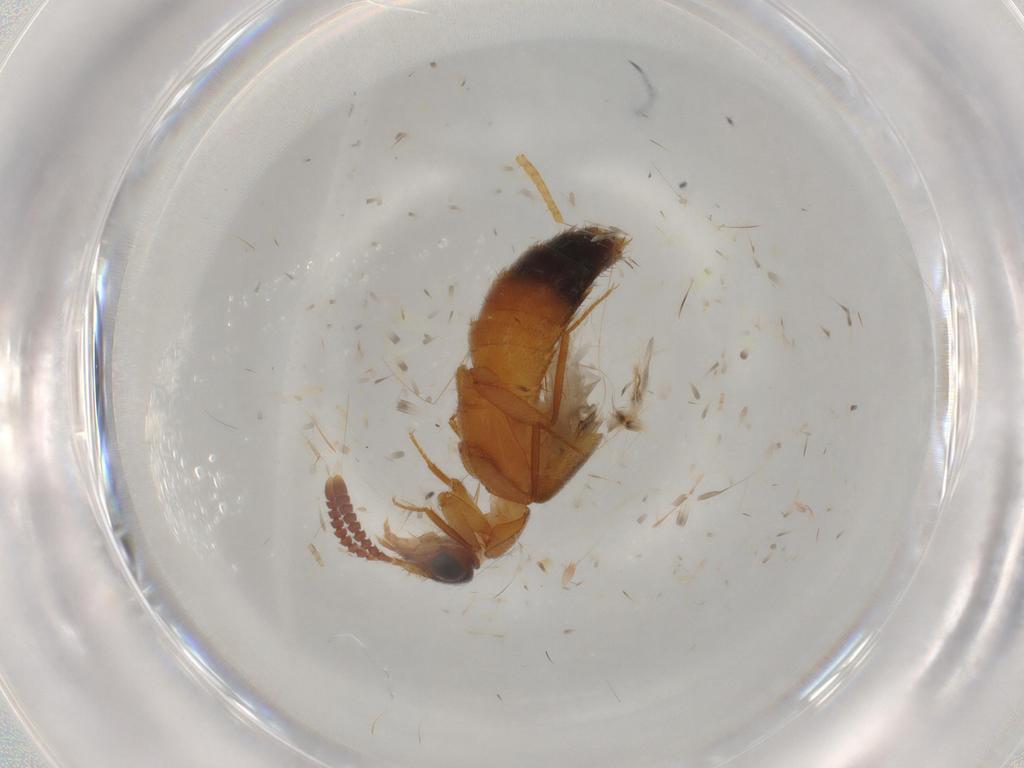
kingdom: Animalia
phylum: Arthropoda
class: Insecta
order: Coleoptera
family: Staphylinidae
